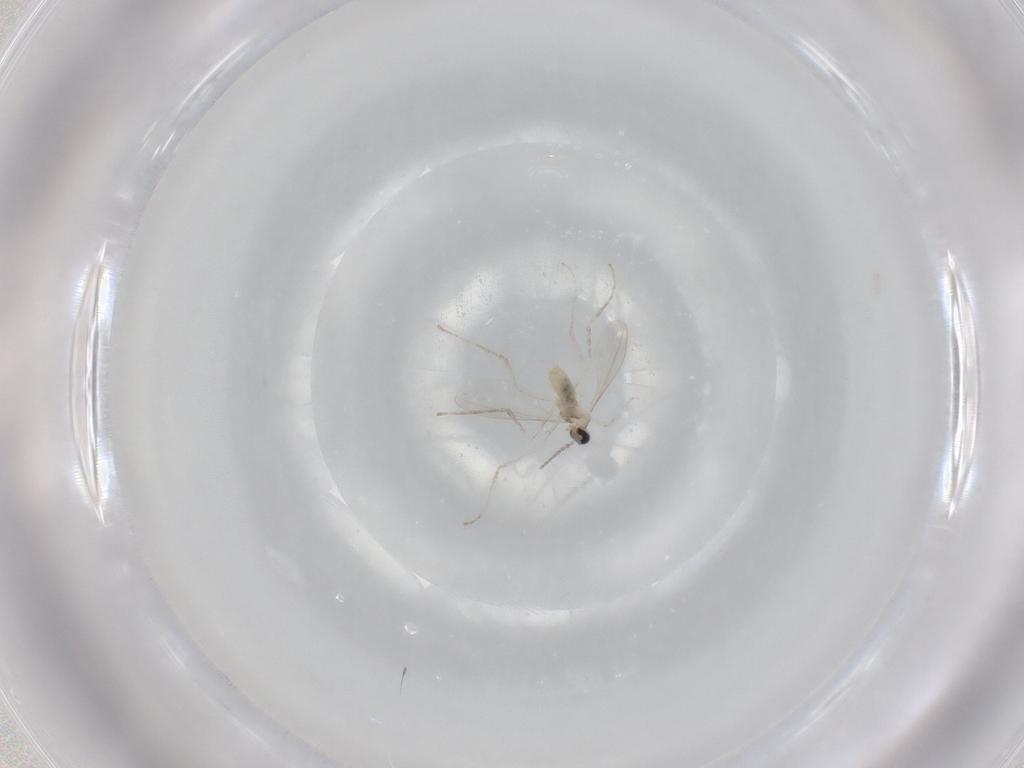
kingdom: Animalia
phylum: Arthropoda
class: Insecta
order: Diptera
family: Cecidomyiidae
